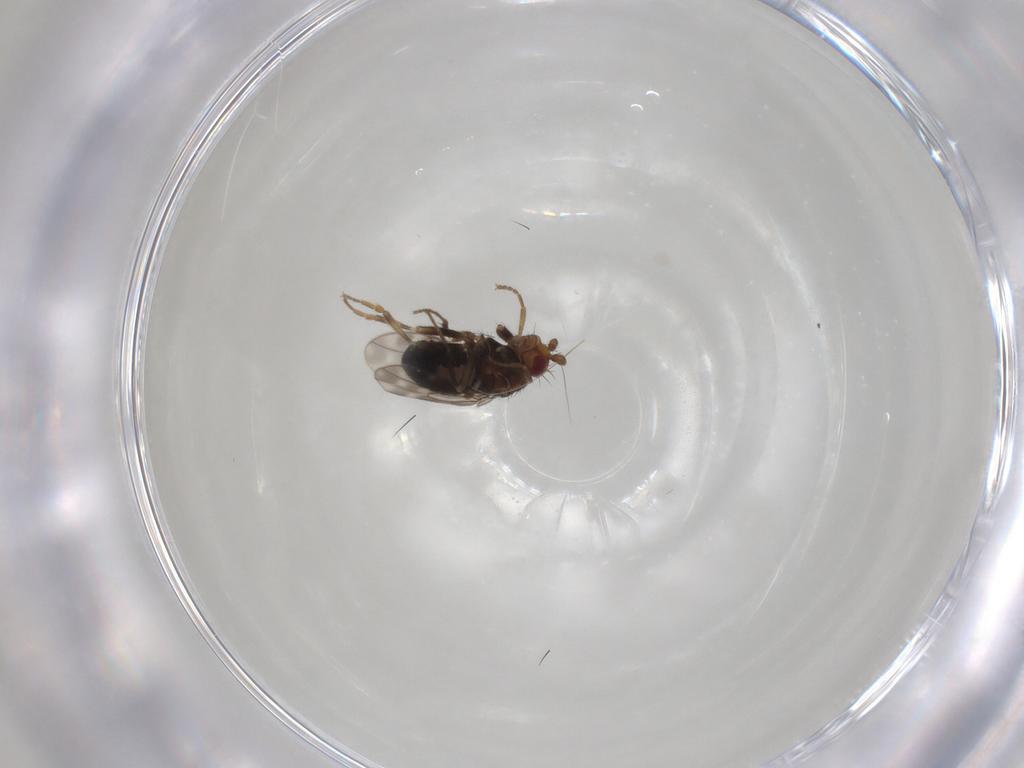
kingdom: Animalia
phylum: Arthropoda
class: Insecta
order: Diptera
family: Sphaeroceridae
